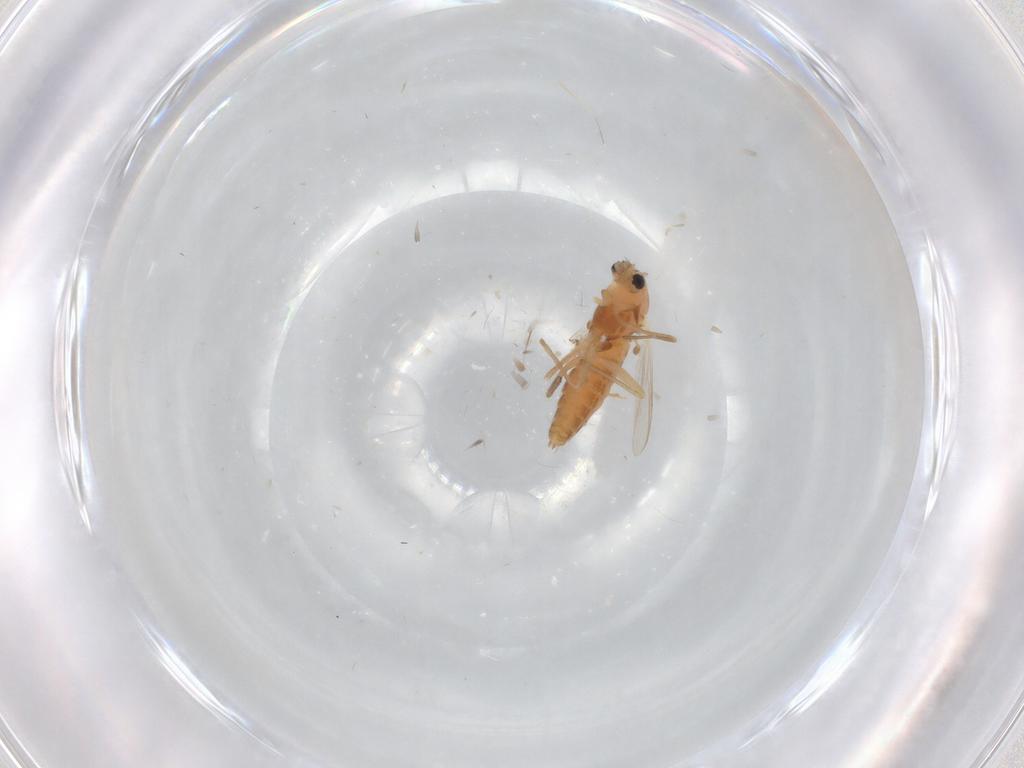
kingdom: Animalia
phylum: Arthropoda
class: Insecta
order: Diptera
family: Chironomidae
